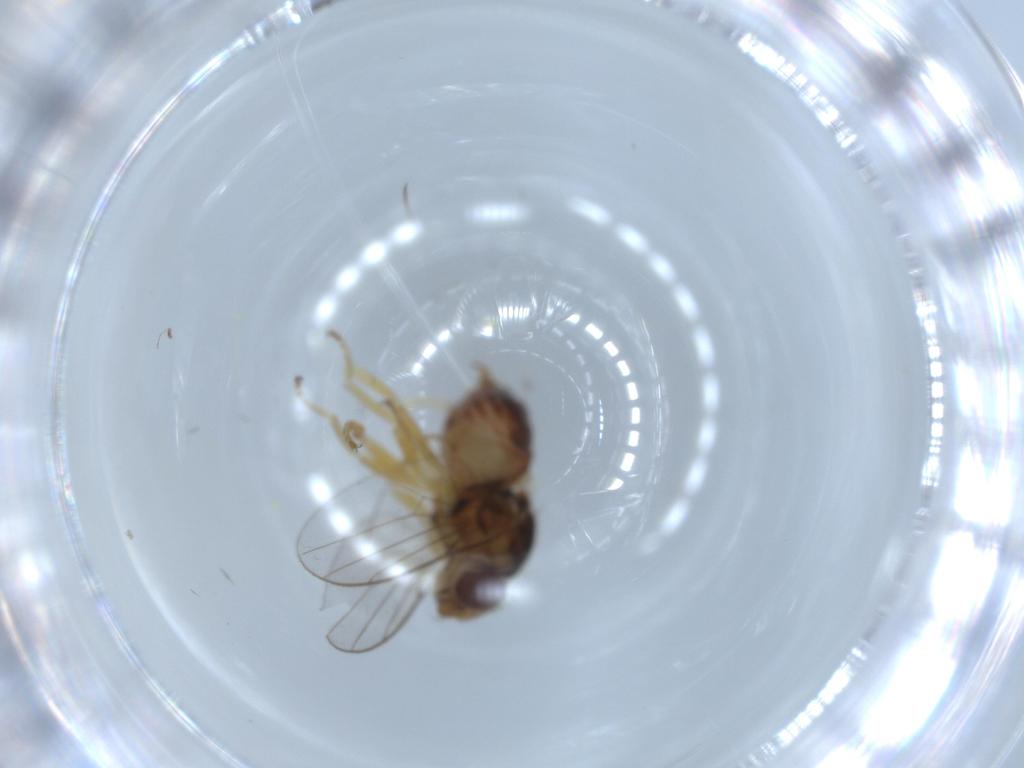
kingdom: Animalia
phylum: Arthropoda
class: Insecta
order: Diptera
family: Chloropidae
